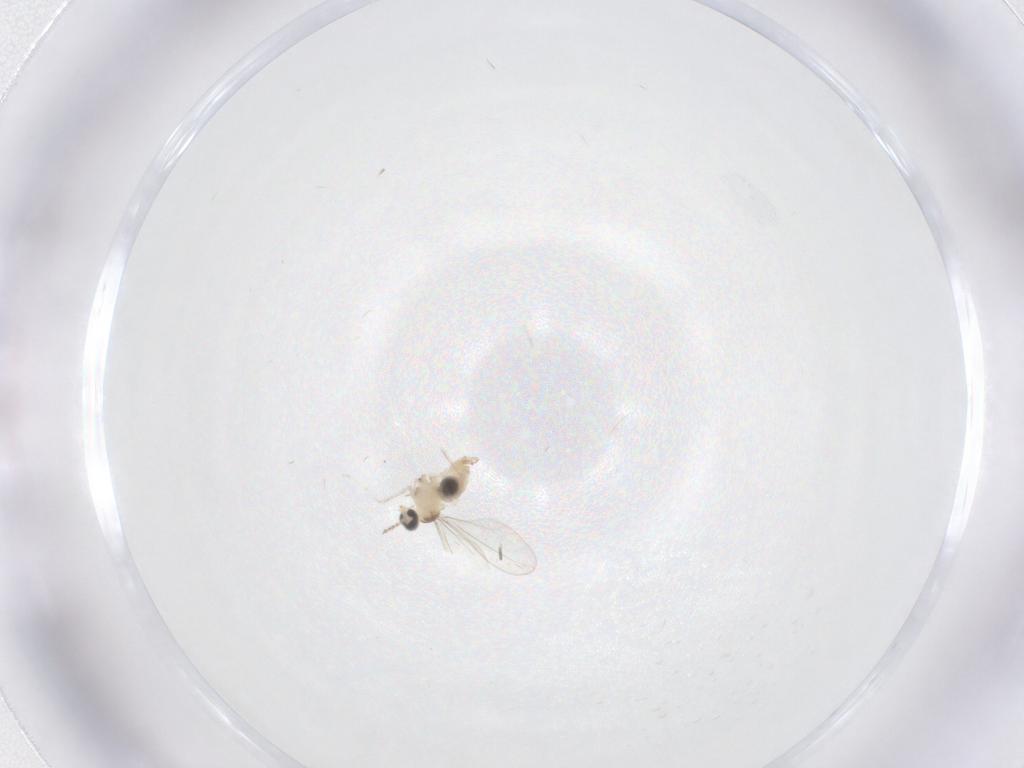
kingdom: Animalia
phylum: Arthropoda
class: Insecta
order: Diptera
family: Cecidomyiidae
